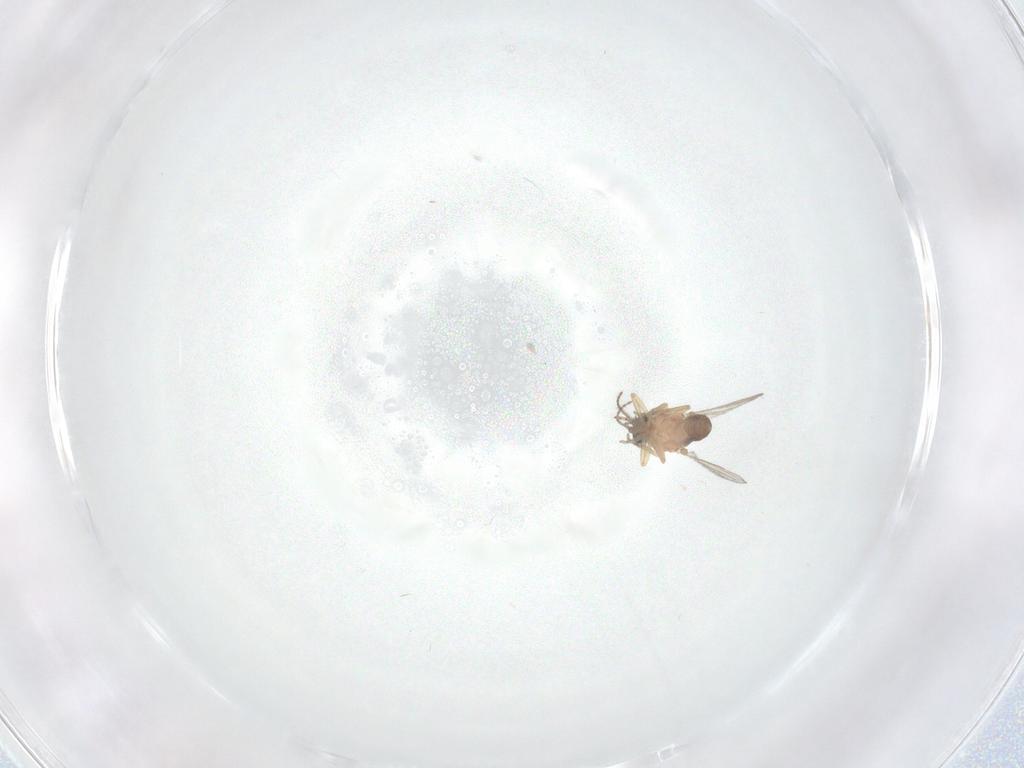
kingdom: Animalia
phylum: Arthropoda
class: Insecta
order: Diptera
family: Ceratopogonidae
